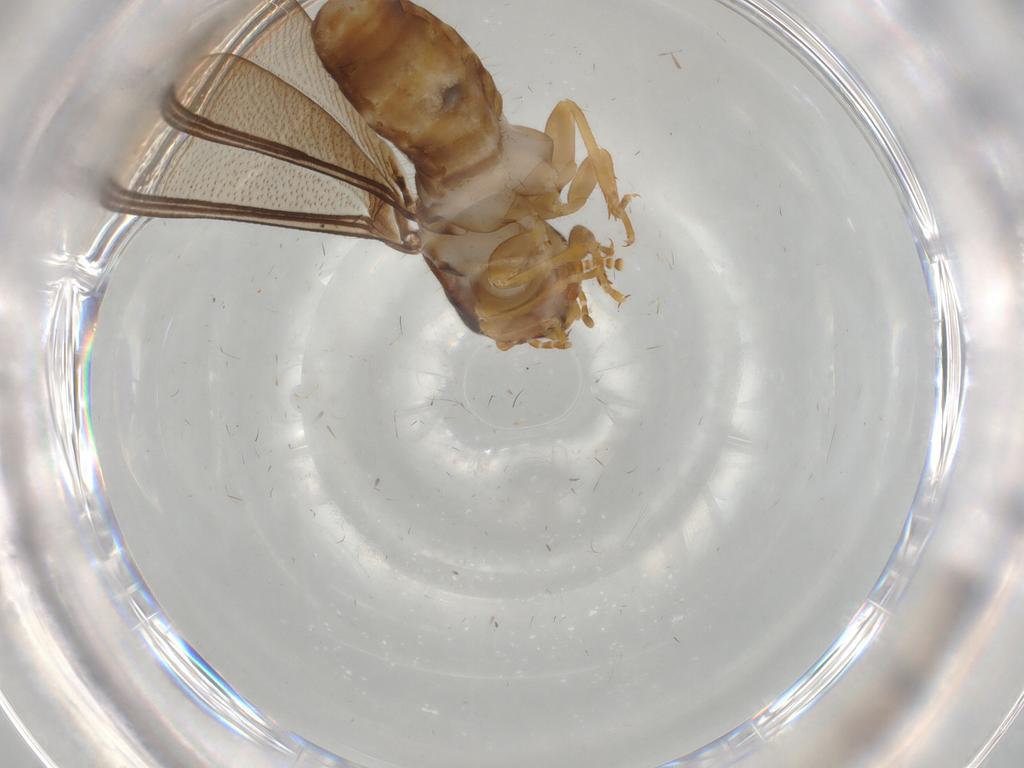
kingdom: Animalia
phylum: Arthropoda
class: Insecta
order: Blattodea
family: Kalotermitidae
